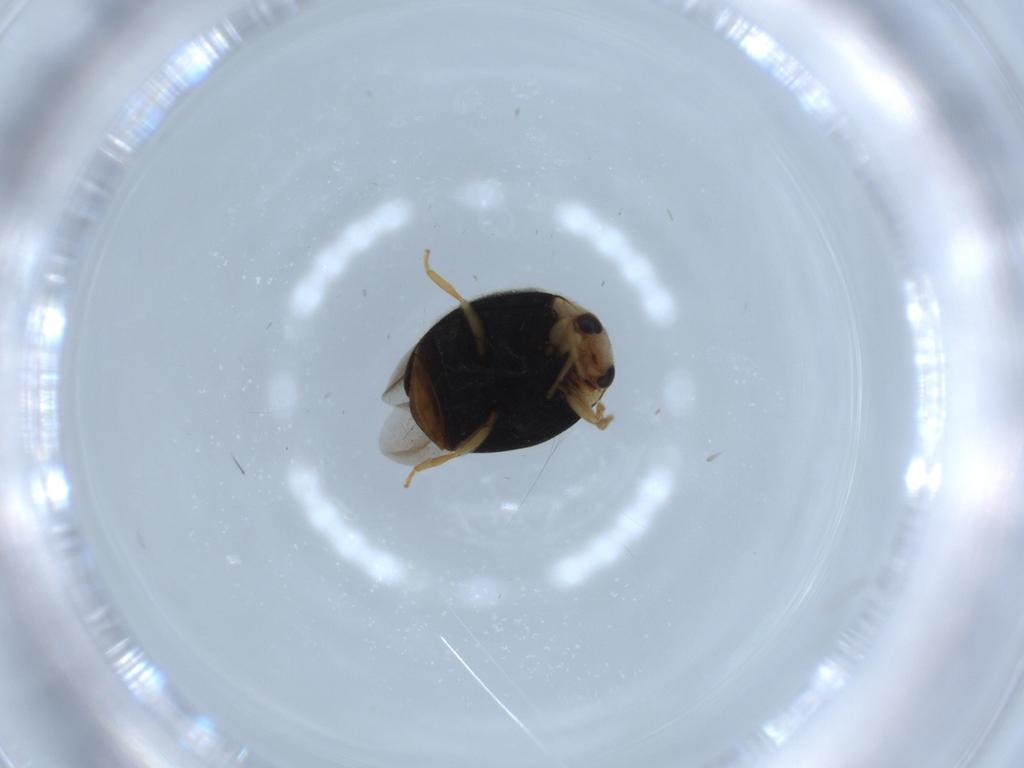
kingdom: Animalia
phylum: Arthropoda
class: Insecta
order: Coleoptera
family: Coccinellidae
